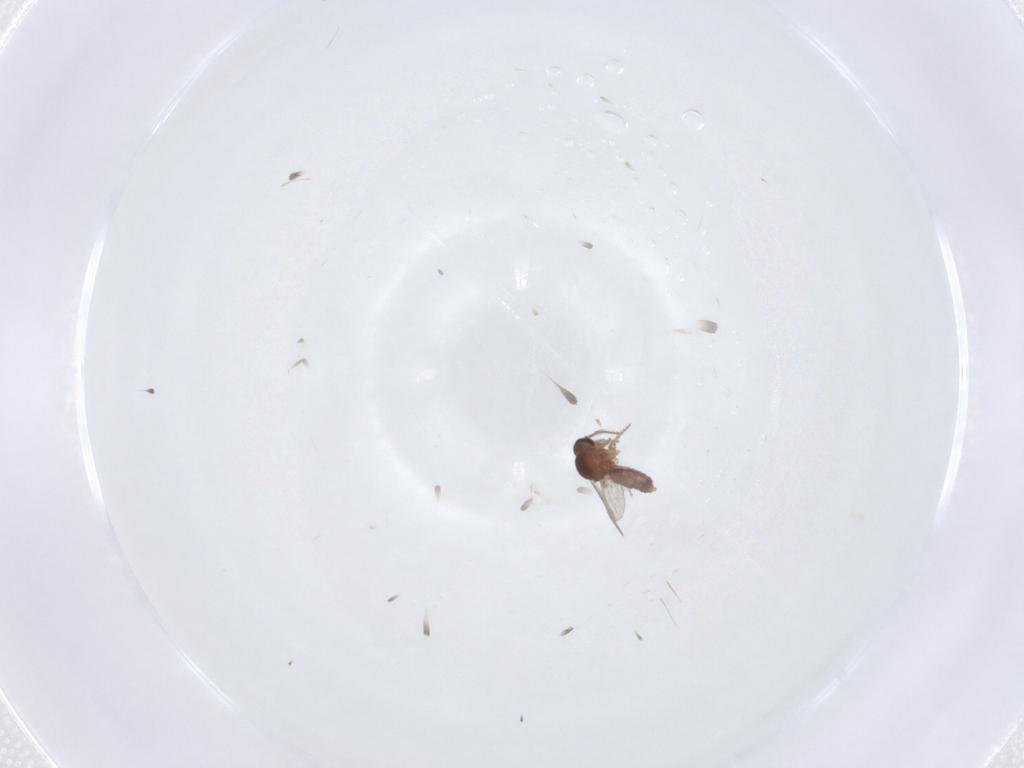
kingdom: Animalia
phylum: Arthropoda
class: Insecta
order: Diptera
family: Ceratopogonidae
